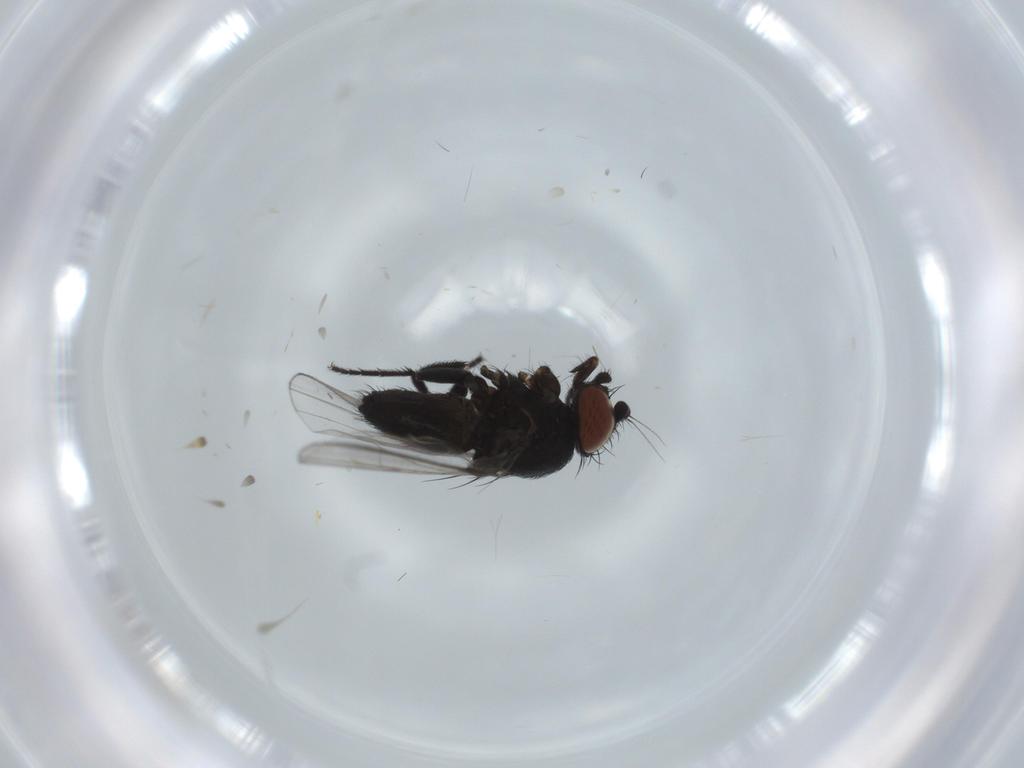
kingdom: Animalia
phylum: Arthropoda
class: Insecta
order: Diptera
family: Milichiidae
